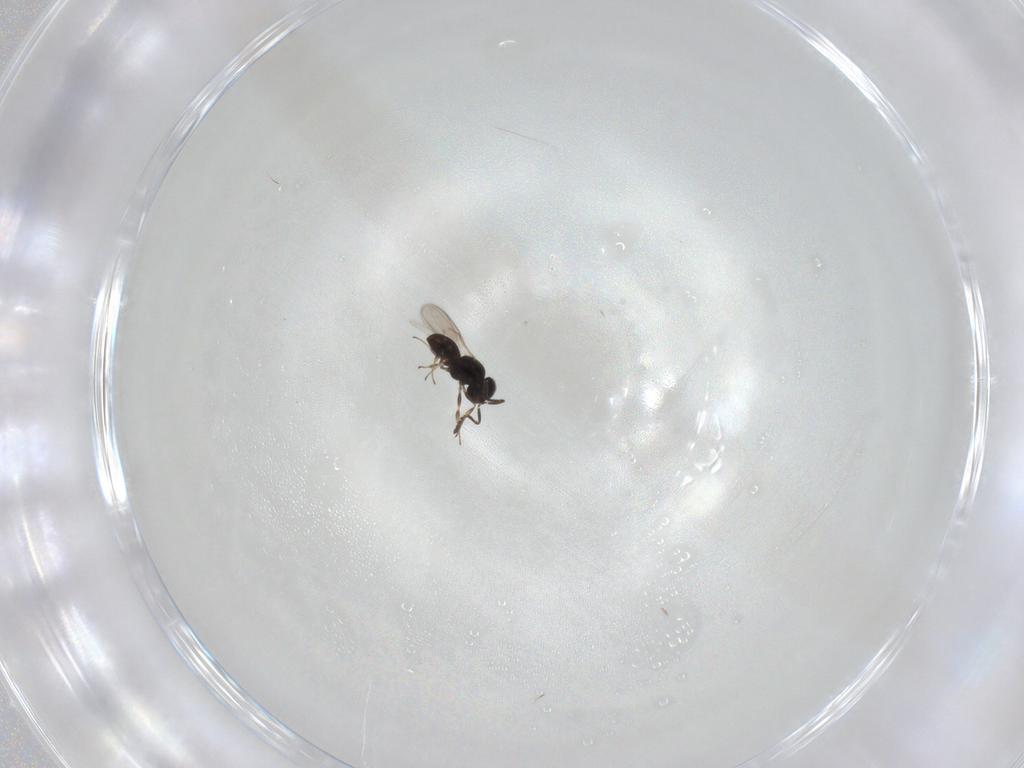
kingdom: Animalia
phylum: Arthropoda
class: Insecta
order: Hymenoptera
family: Scelionidae
